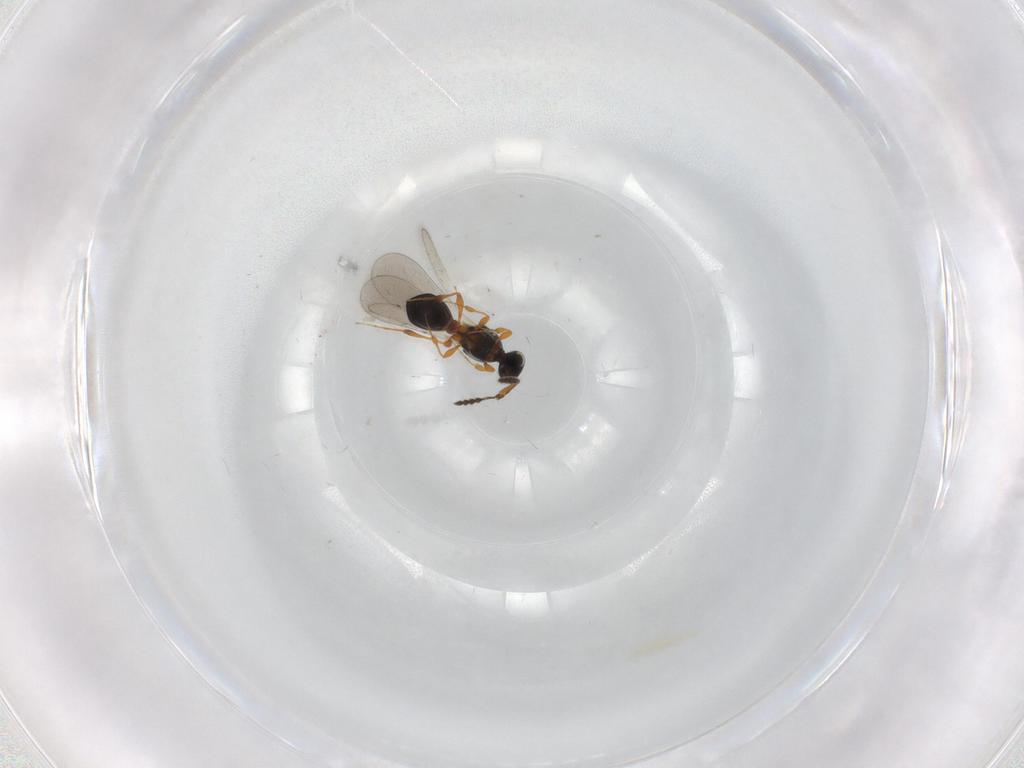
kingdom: Animalia
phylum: Arthropoda
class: Insecta
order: Hymenoptera
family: Platygastridae
